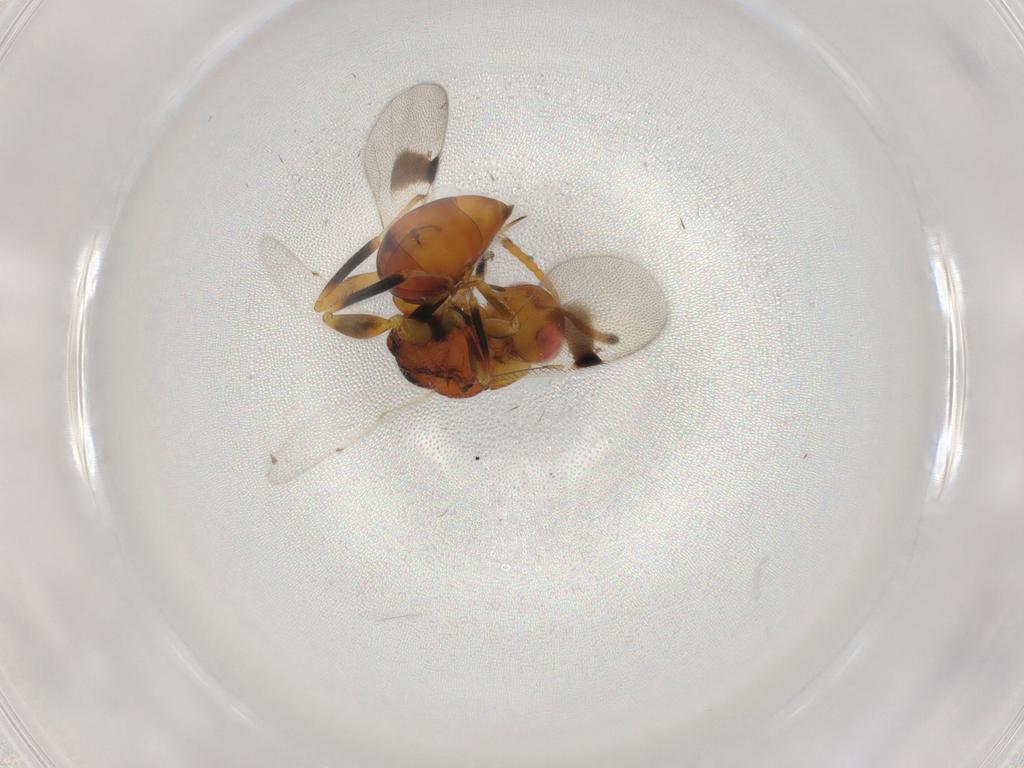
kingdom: Animalia
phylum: Arthropoda
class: Insecta
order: Hymenoptera
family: Eurytomidae
